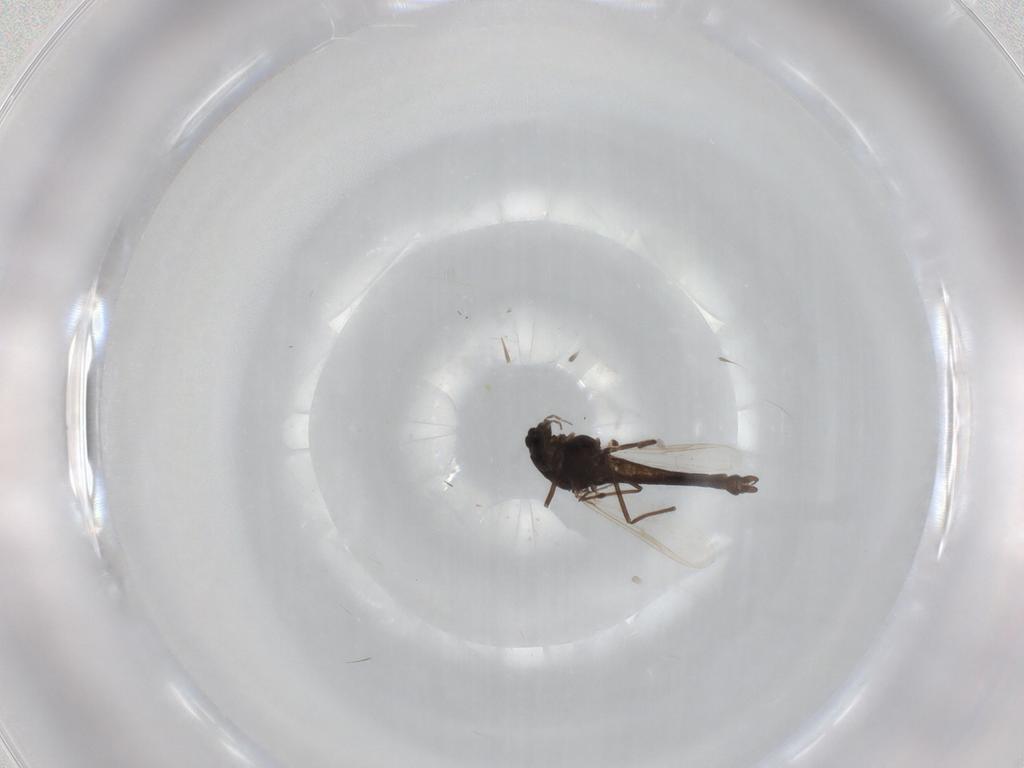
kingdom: Animalia
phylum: Arthropoda
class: Insecta
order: Diptera
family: Chironomidae
